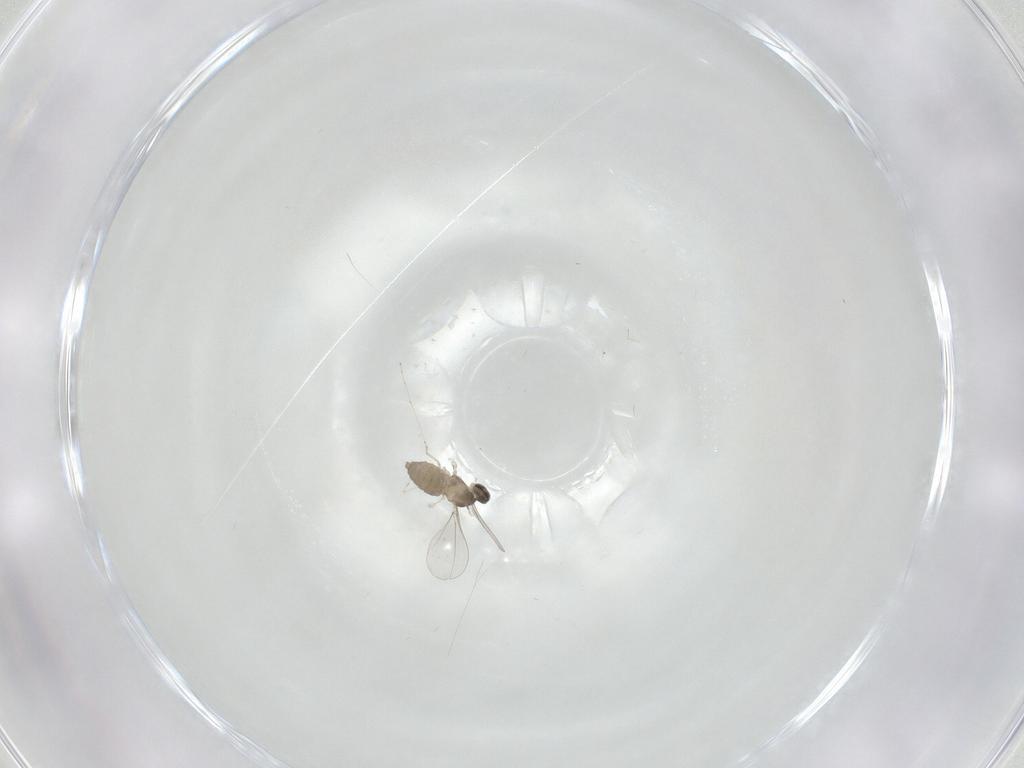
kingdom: Animalia
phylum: Arthropoda
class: Insecta
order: Diptera
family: Cecidomyiidae
